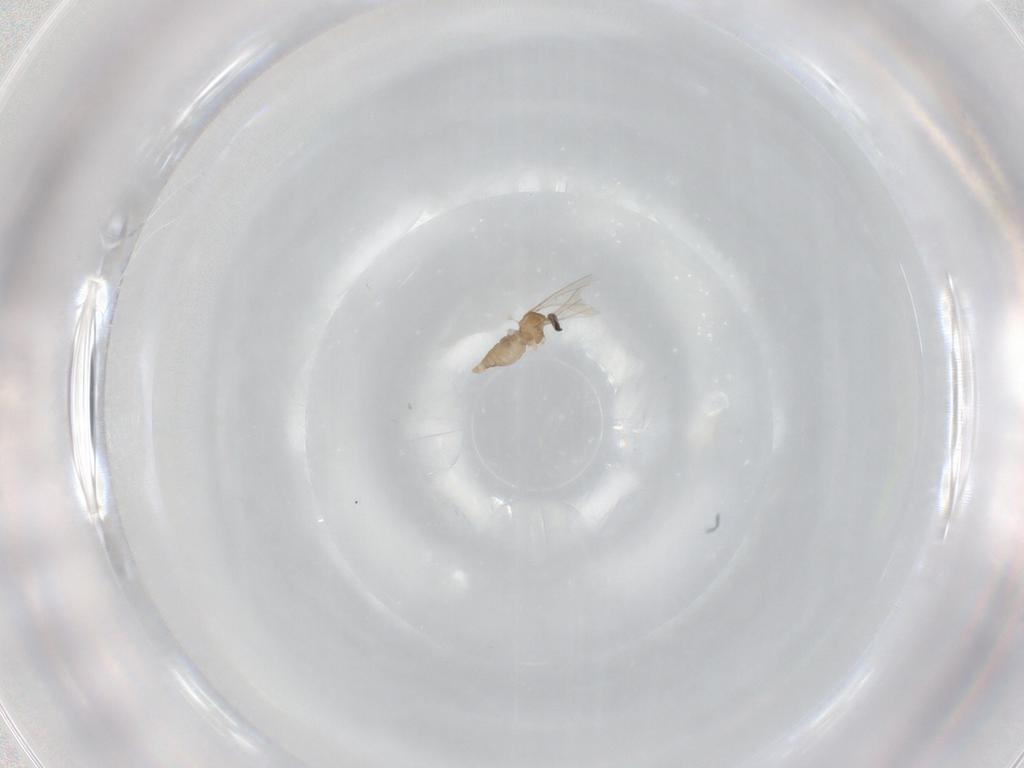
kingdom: Animalia
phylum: Arthropoda
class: Insecta
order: Diptera
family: Cecidomyiidae
